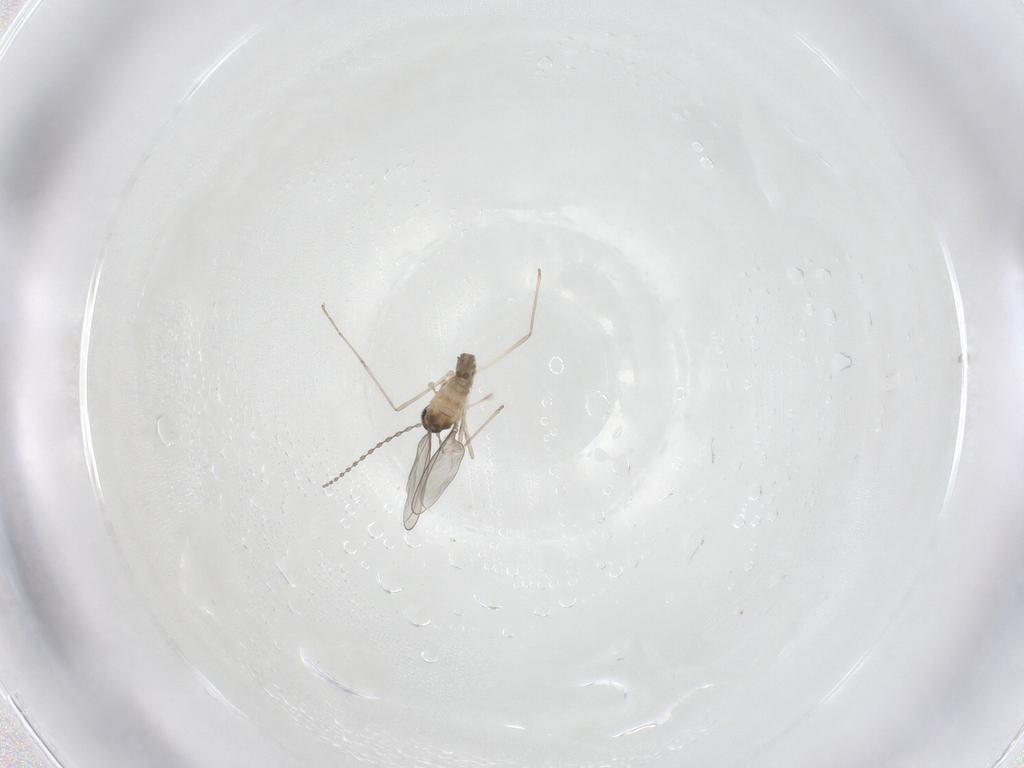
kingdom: Animalia
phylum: Arthropoda
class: Insecta
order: Diptera
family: Cecidomyiidae
